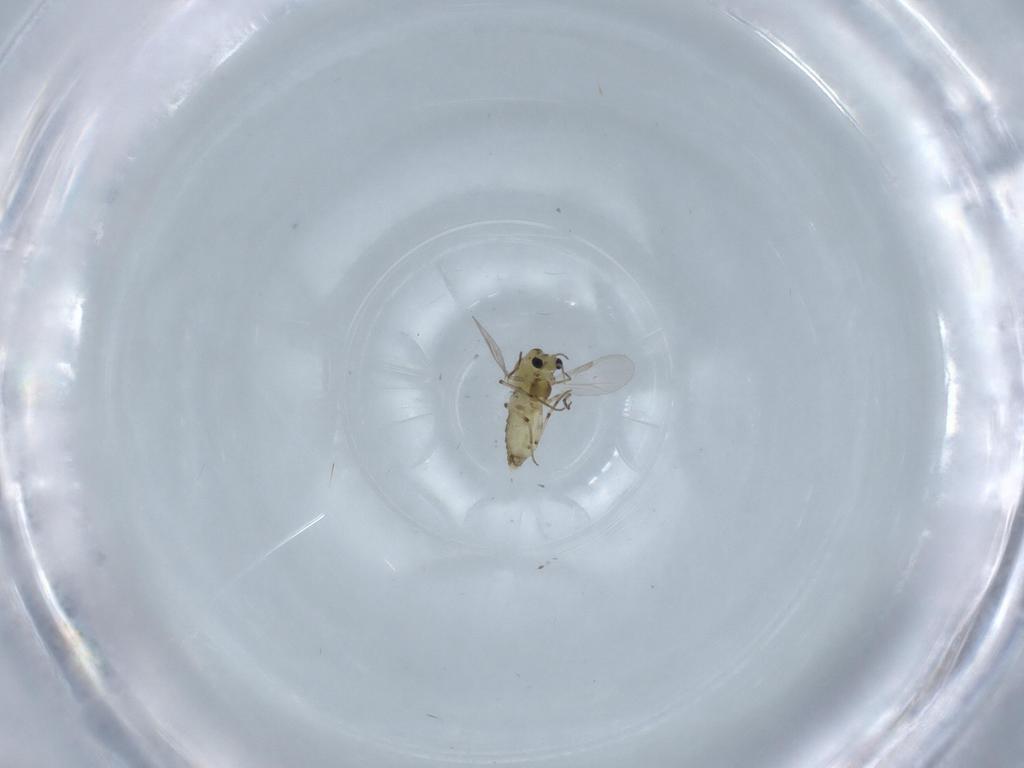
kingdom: Animalia
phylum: Arthropoda
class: Insecta
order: Diptera
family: Chironomidae
